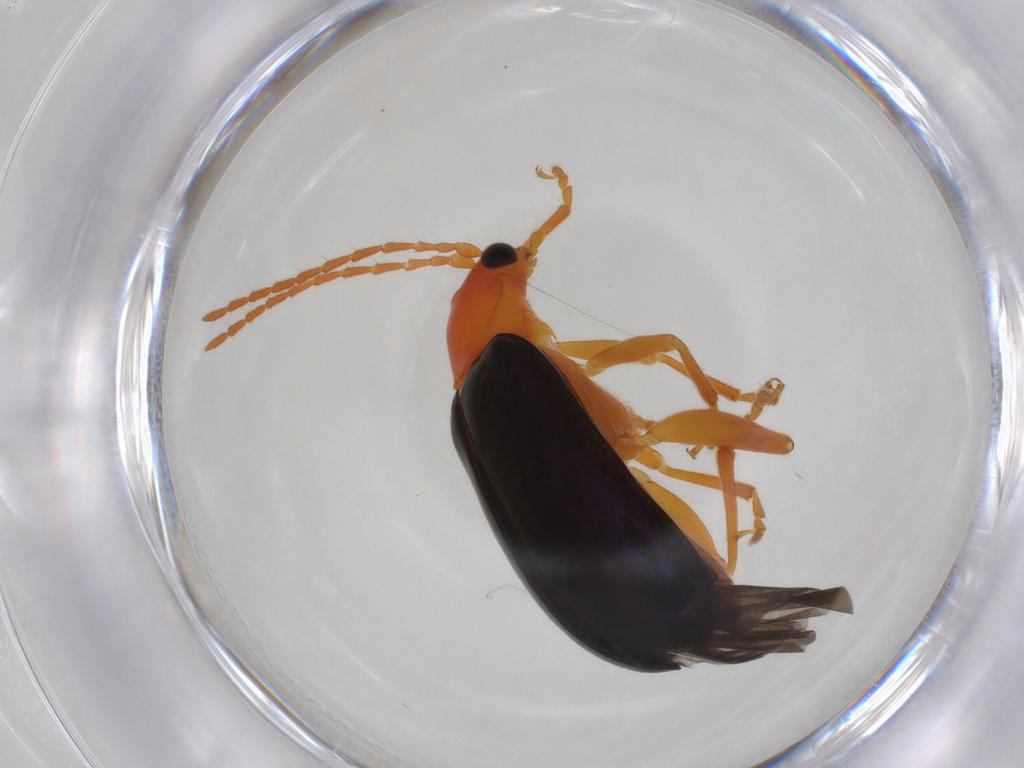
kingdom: Animalia
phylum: Arthropoda
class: Insecta
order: Coleoptera
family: Chrysomelidae
